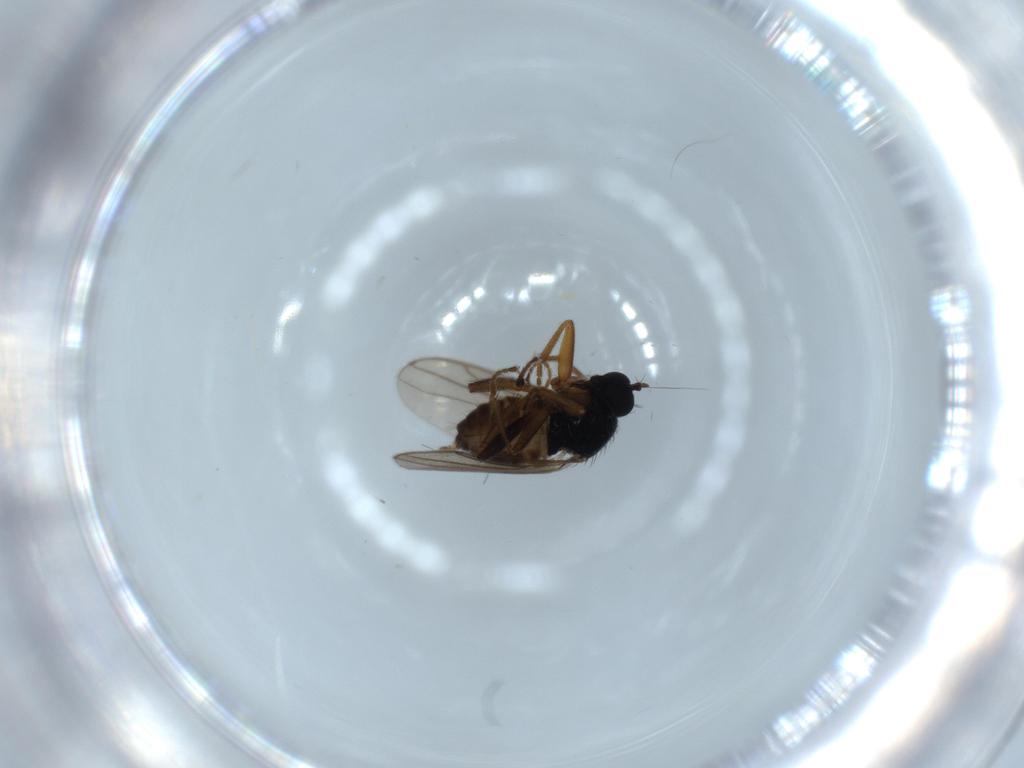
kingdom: Animalia
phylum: Arthropoda
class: Insecta
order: Diptera
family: Hybotidae
